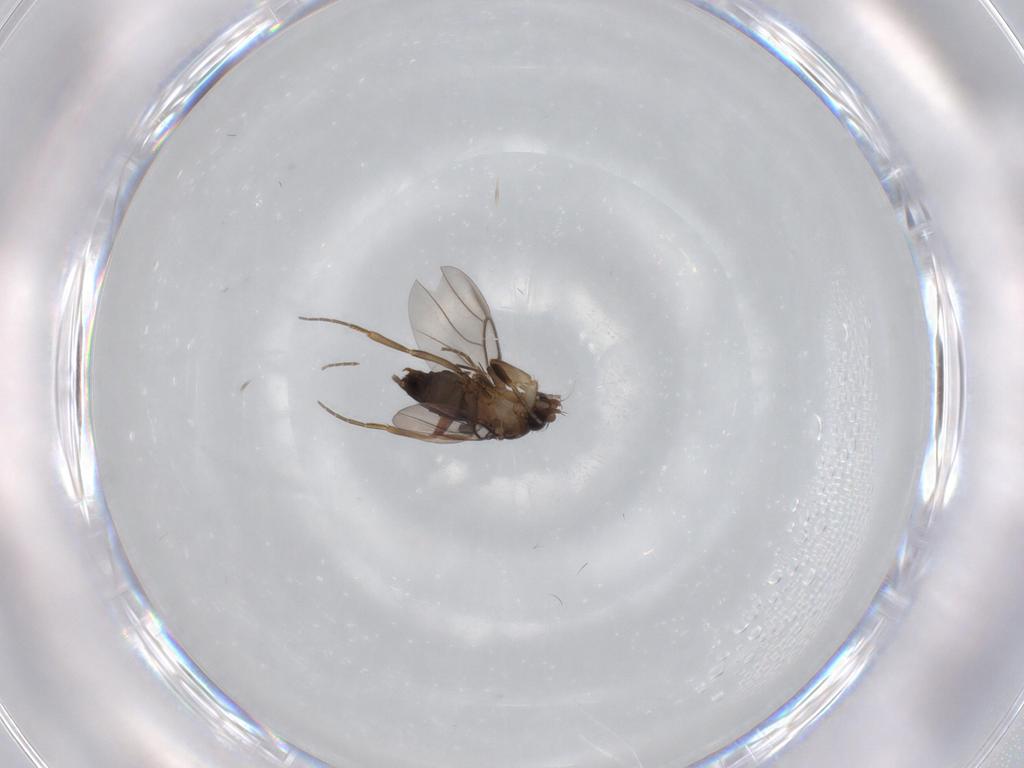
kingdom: Animalia
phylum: Arthropoda
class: Insecta
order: Diptera
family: Phoridae
